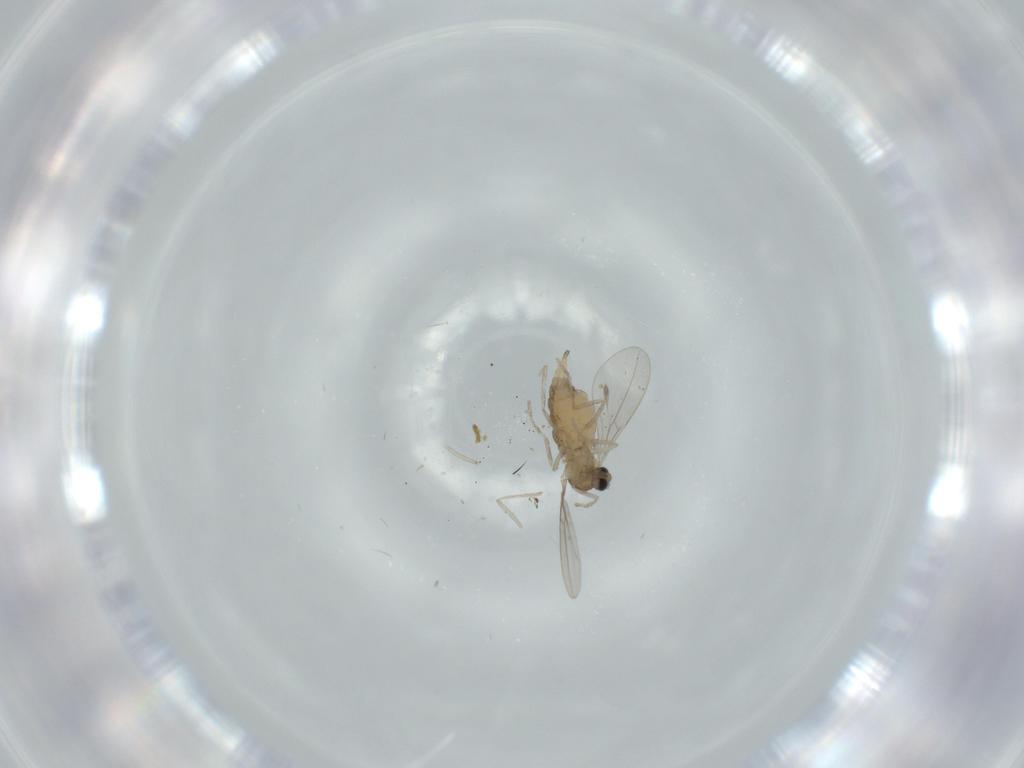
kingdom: Animalia
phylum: Arthropoda
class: Insecta
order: Diptera
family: Cecidomyiidae
